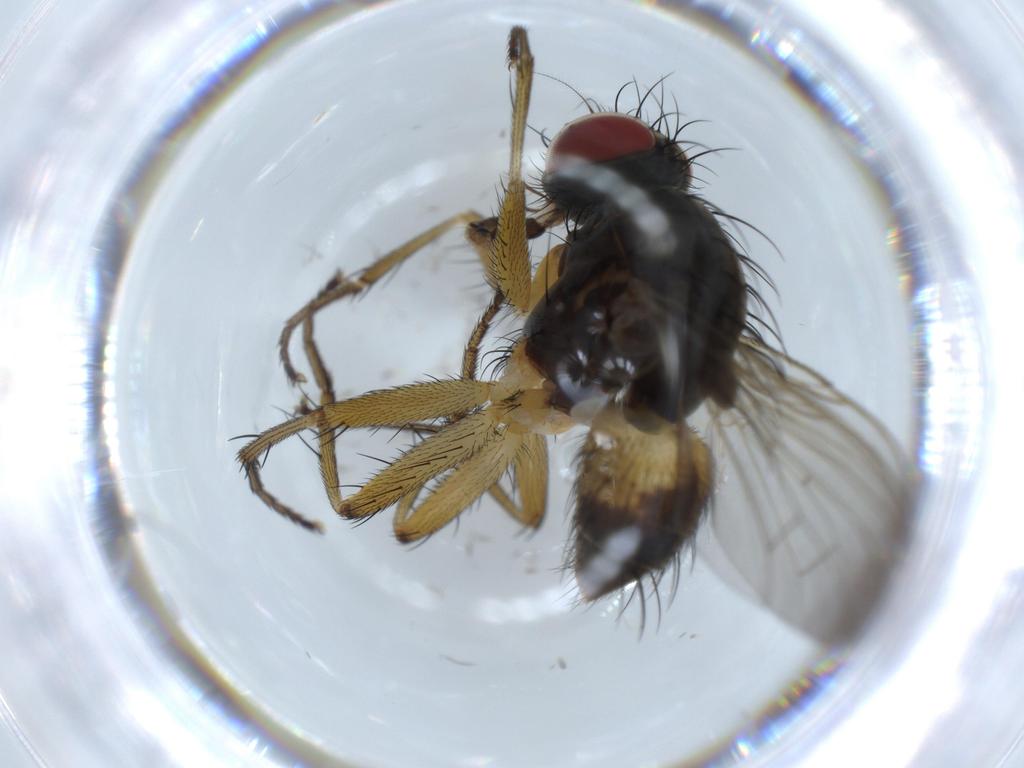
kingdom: Animalia
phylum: Arthropoda
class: Insecta
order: Diptera
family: Muscidae
